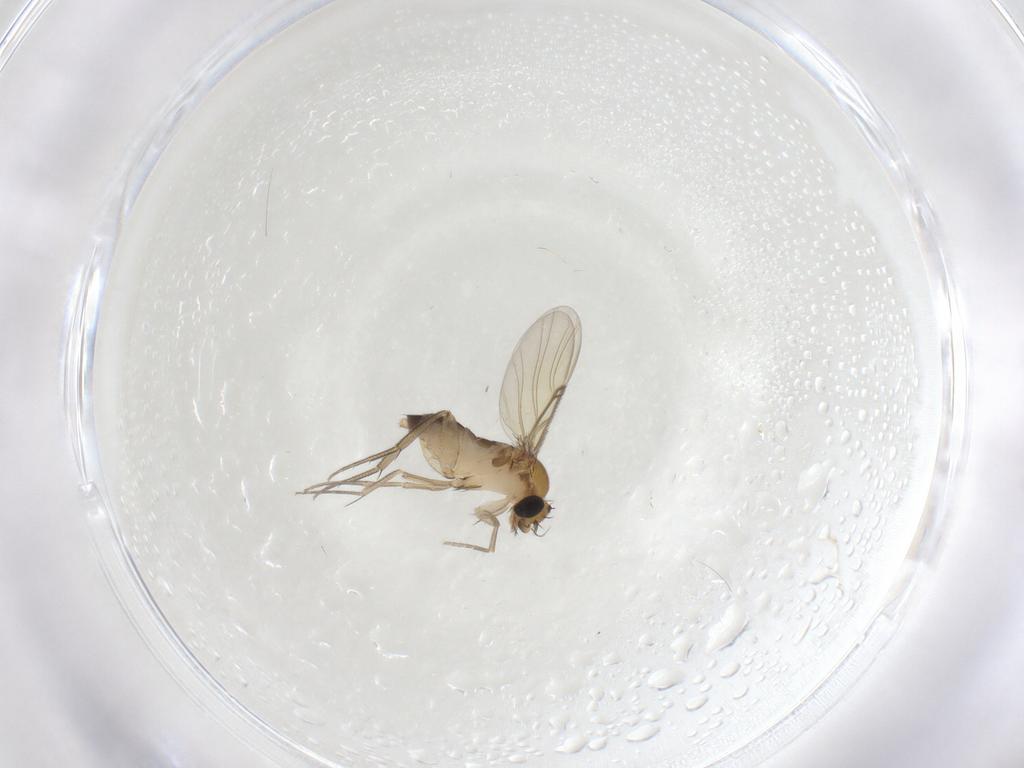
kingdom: Animalia
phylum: Arthropoda
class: Insecta
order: Diptera
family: Phoridae
